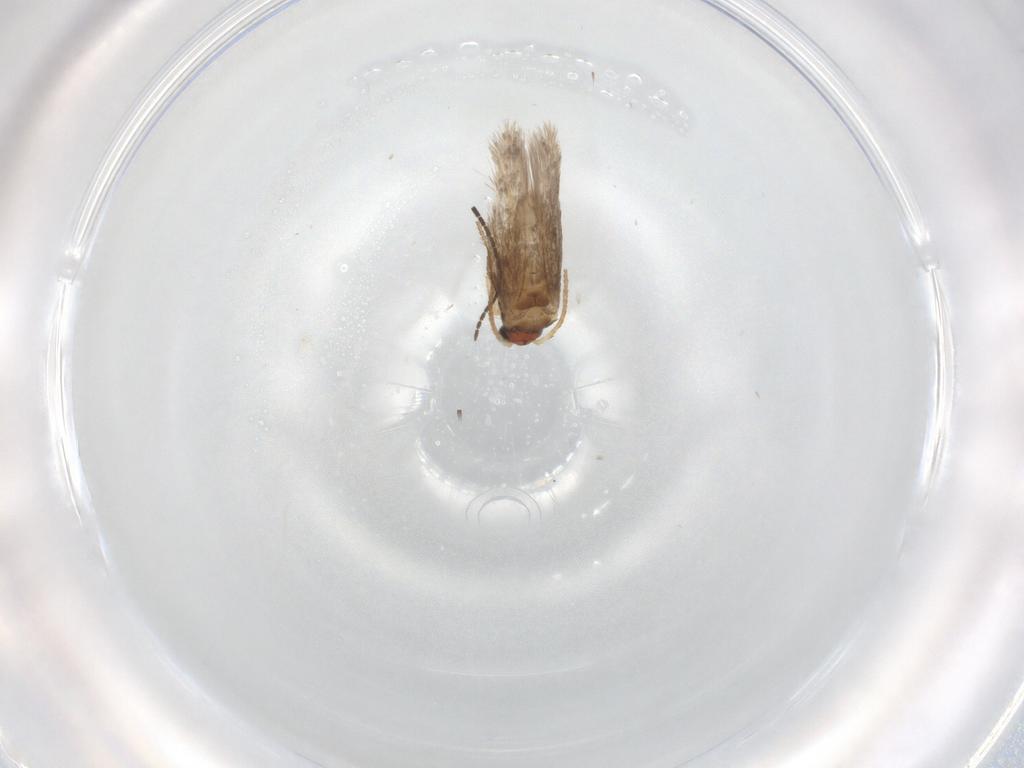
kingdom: Animalia
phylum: Arthropoda
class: Insecta
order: Lepidoptera
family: Nepticulidae
